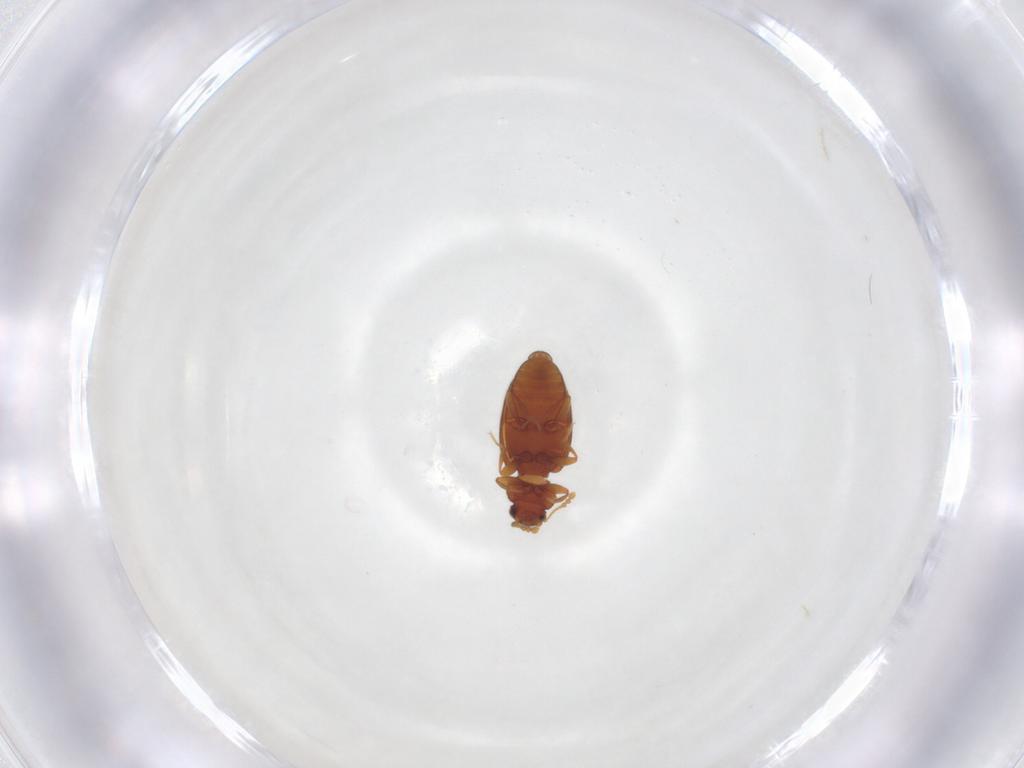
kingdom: Animalia
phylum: Arthropoda
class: Insecta
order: Coleoptera
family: Latridiidae
